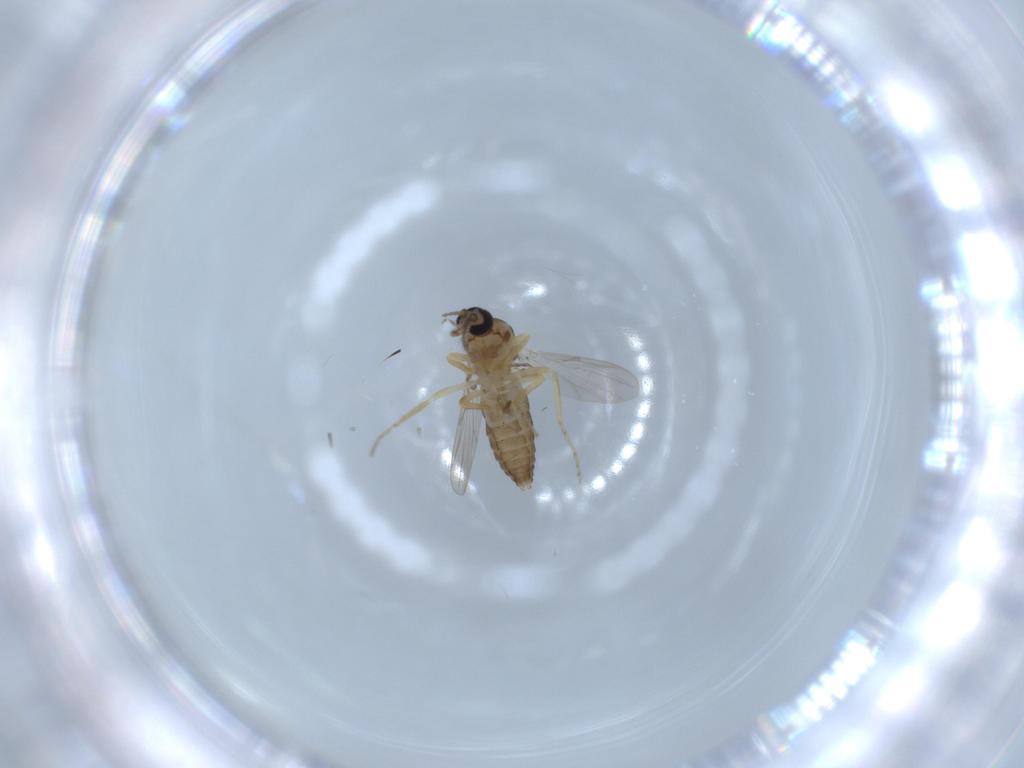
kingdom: Animalia
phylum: Arthropoda
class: Insecta
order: Diptera
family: Ceratopogonidae
